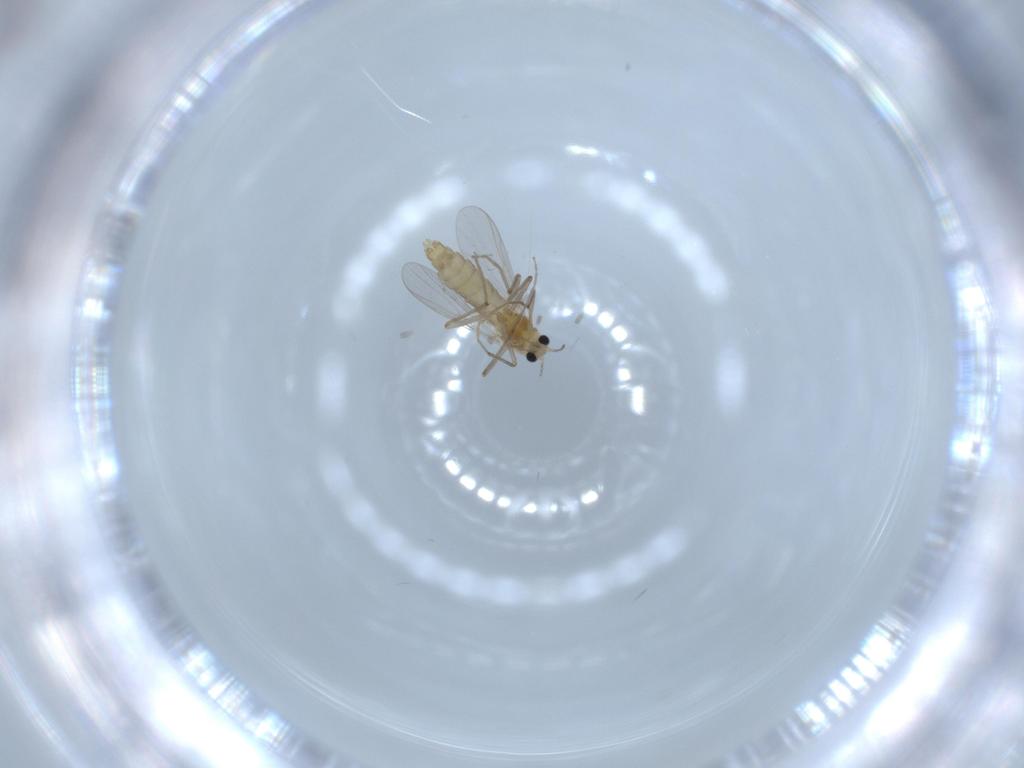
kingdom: Animalia
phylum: Arthropoda
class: Insecta
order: Diptera
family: Chironomidae
